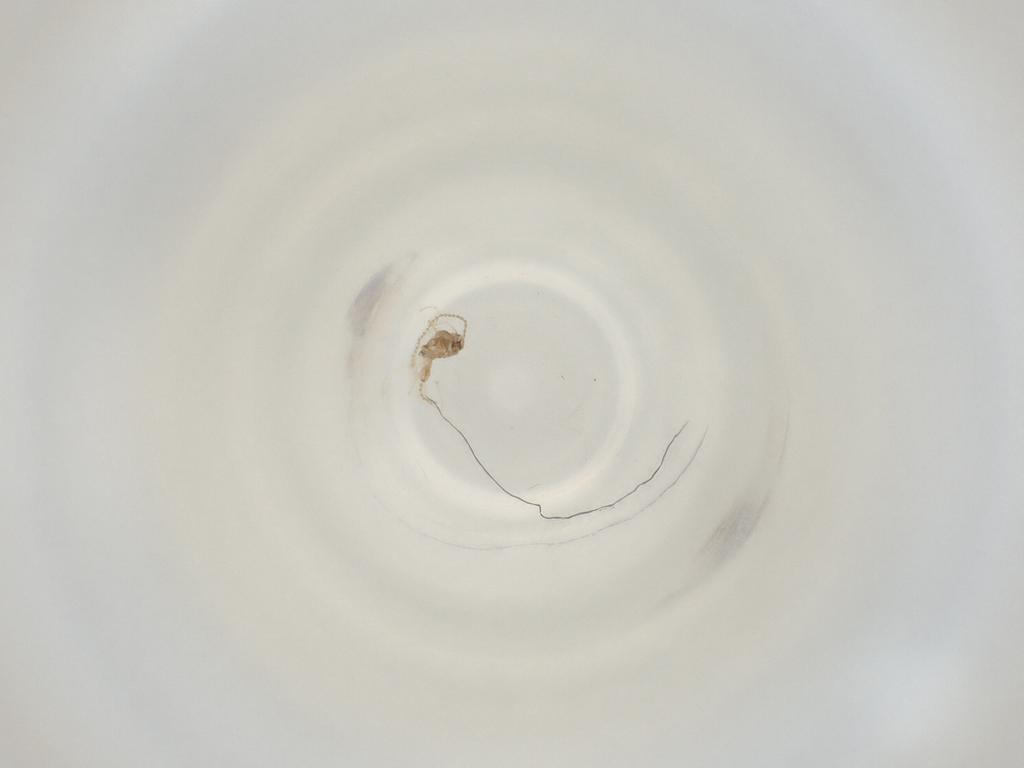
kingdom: Animalia
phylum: Arthropoda
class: Insecta
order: Diptera
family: Cecidomyiidae
